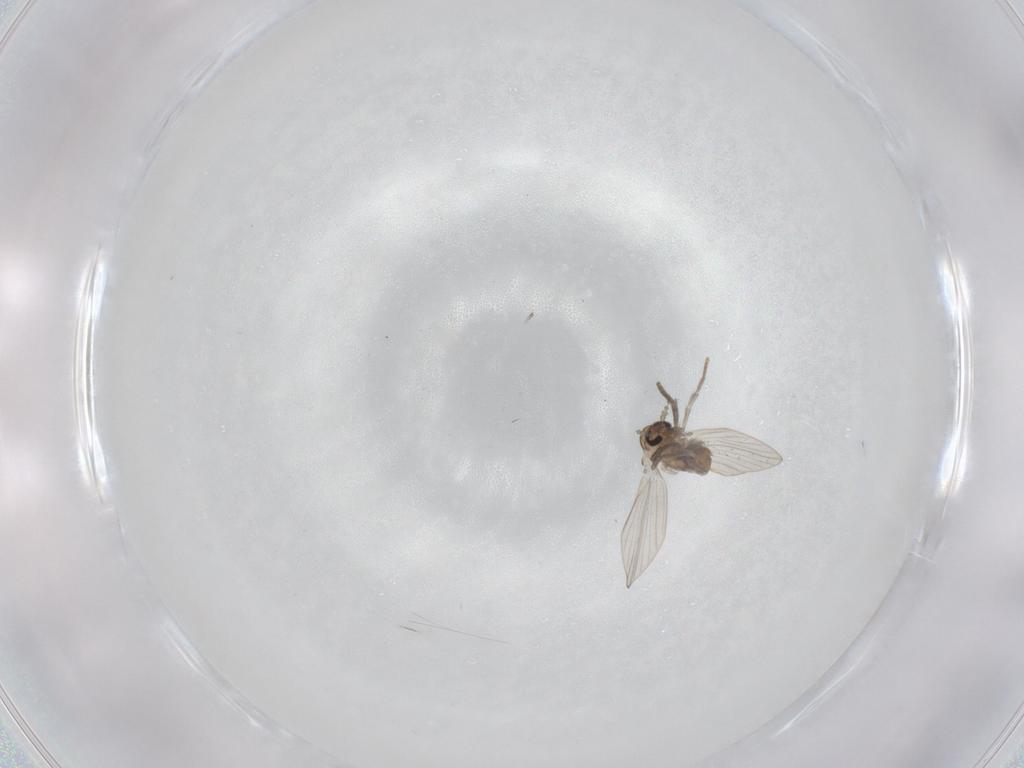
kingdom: Animalia
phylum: Arthropoda
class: Insecta
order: Diptera
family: Psychodidae
